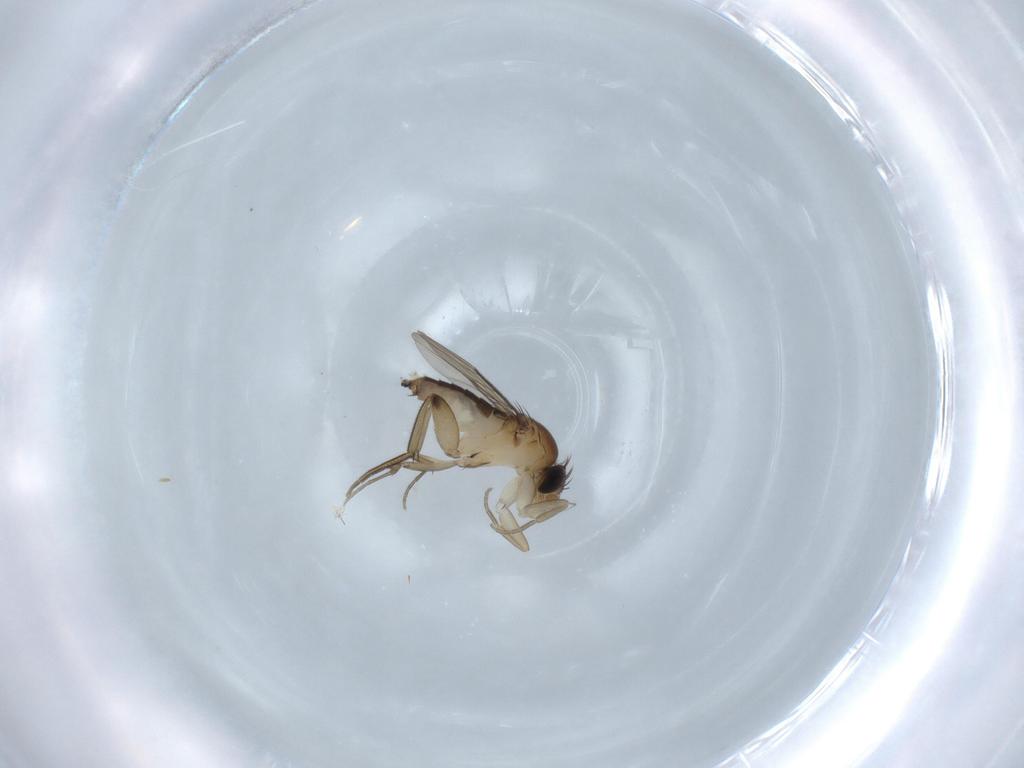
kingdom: Animalia
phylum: Arthropoda
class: Insecta
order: Diptera
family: Phoridae
